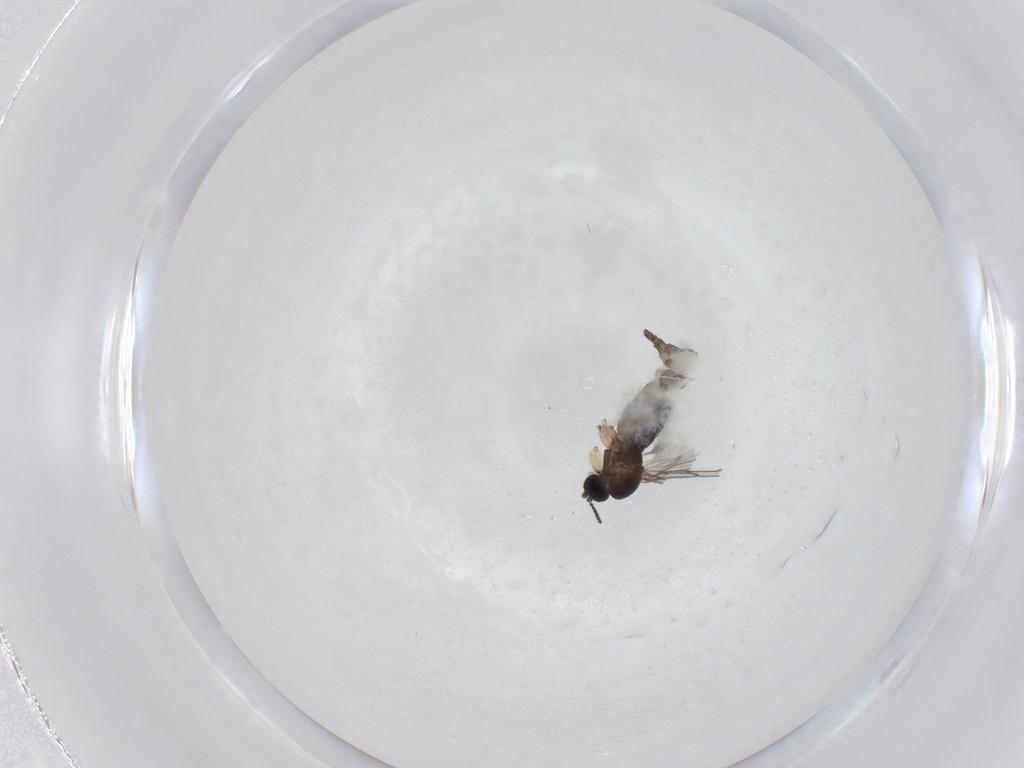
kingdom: Animalia
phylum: Arthropoda
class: Insecta
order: Diptera
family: Sciaridae
